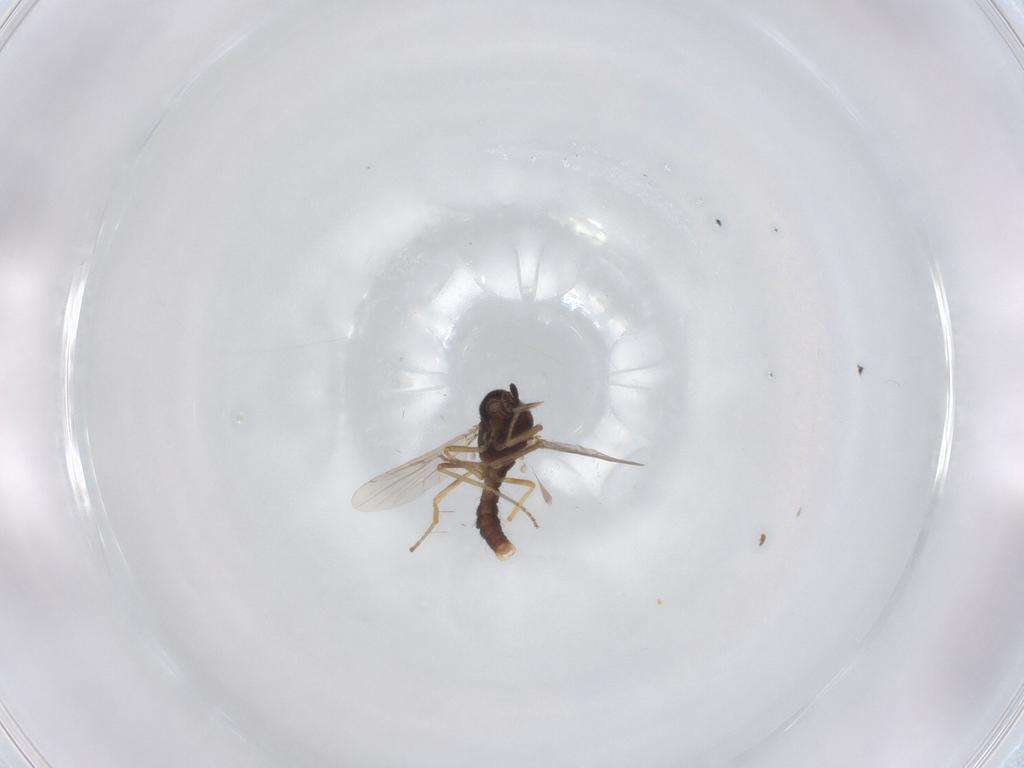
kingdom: Animalia
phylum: Arthropoda
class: Insecta
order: Diptera
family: Ceratopogonidae
